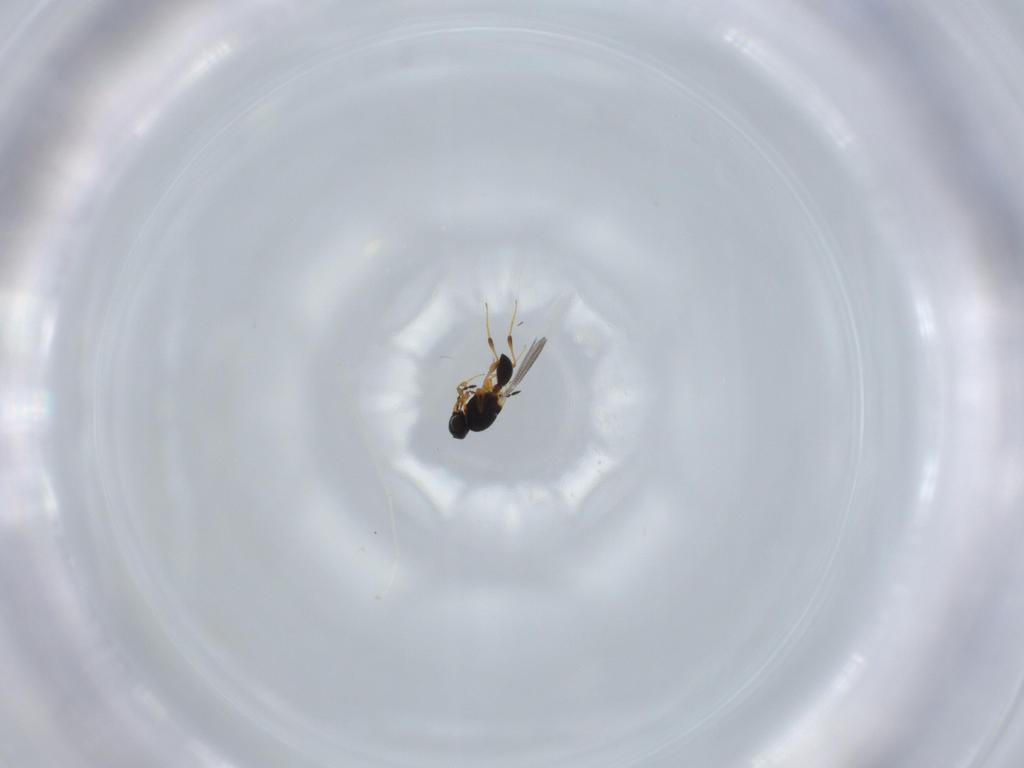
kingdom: Animalia
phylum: Arthropoda
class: Insecta
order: Hymenoptera
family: Platygastridae
